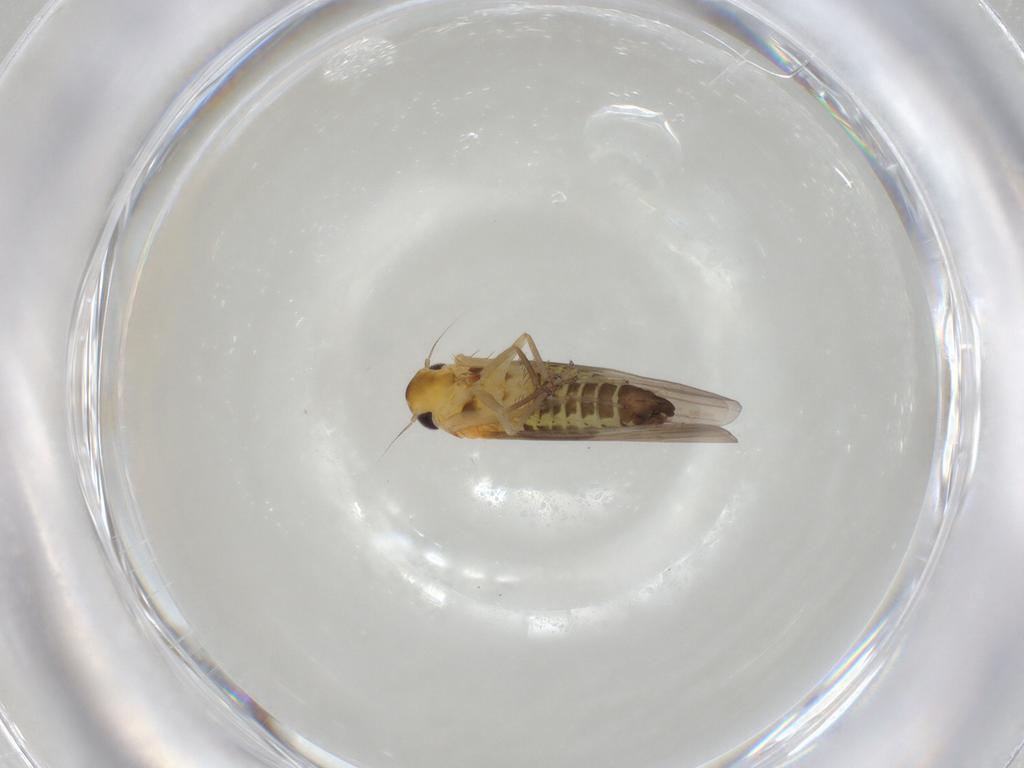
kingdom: Animalia
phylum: Arthropoda
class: Insecta
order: Hemiptera
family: Cicadellidae
